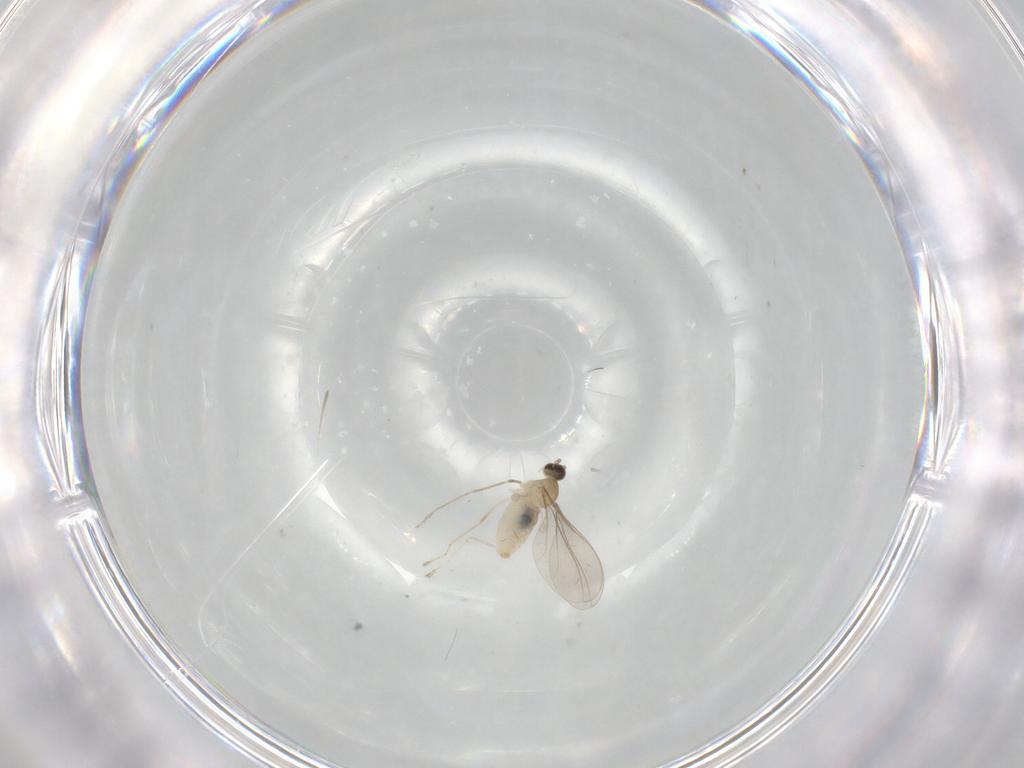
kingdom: Animalia
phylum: Arthropoda
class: Insecta
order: Diptera
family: Cecidomyiidae
